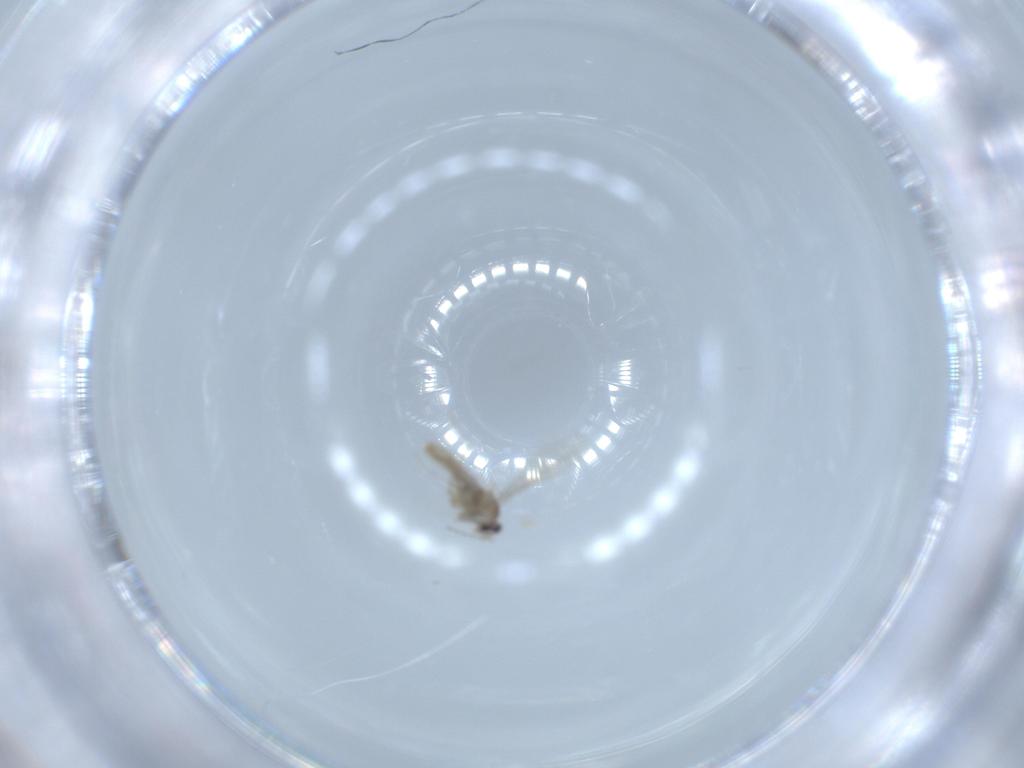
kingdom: Animalia
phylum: Arthropoda
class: Insecta
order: Diptera
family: Cecidomyiidae
